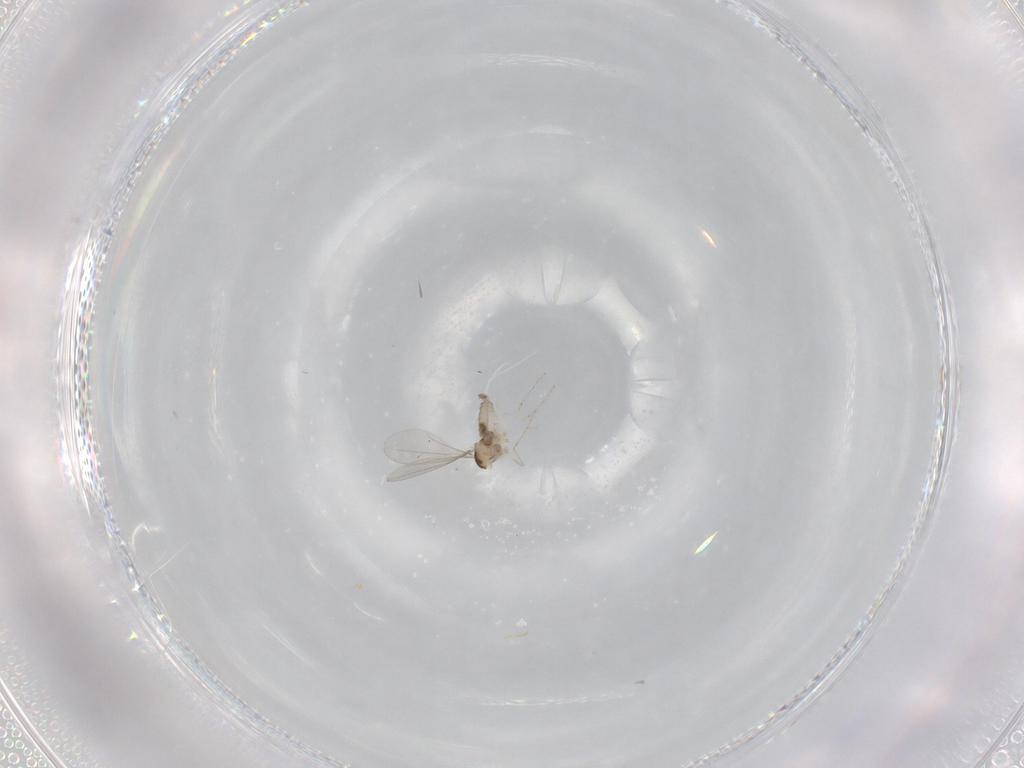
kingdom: Animalia
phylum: Arthropoda
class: Insecta
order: Diptera
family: Cecidomyiidae
